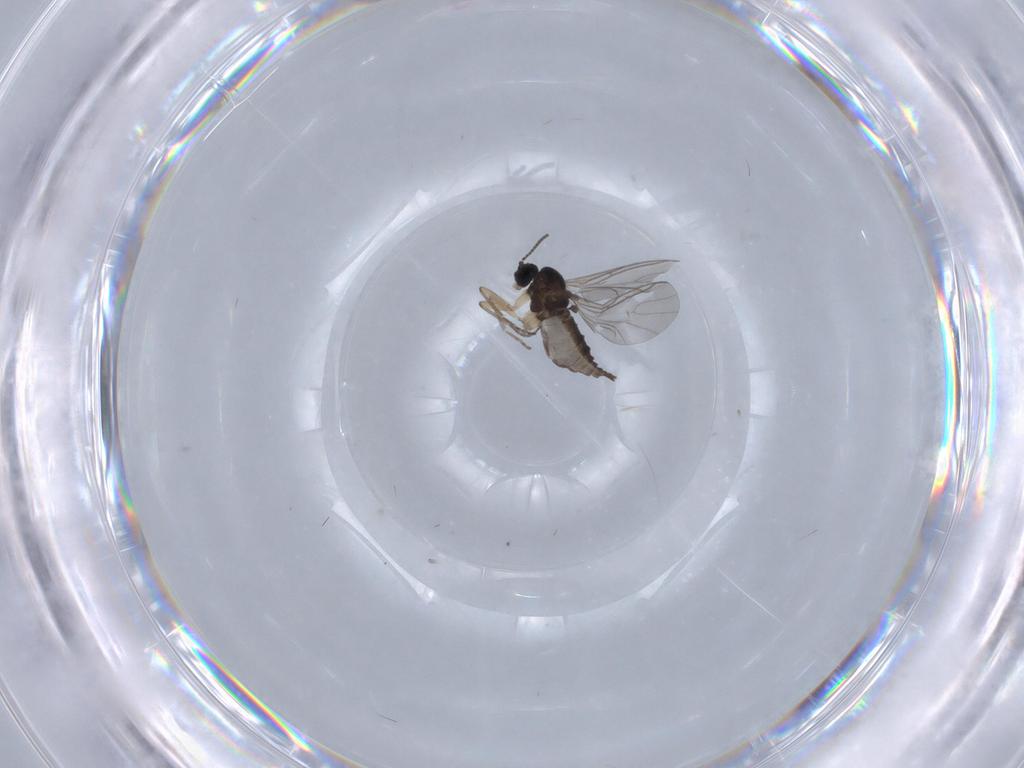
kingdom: Animalia
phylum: Arthropoda
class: Insecta
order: Diptera
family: Sciaridae
